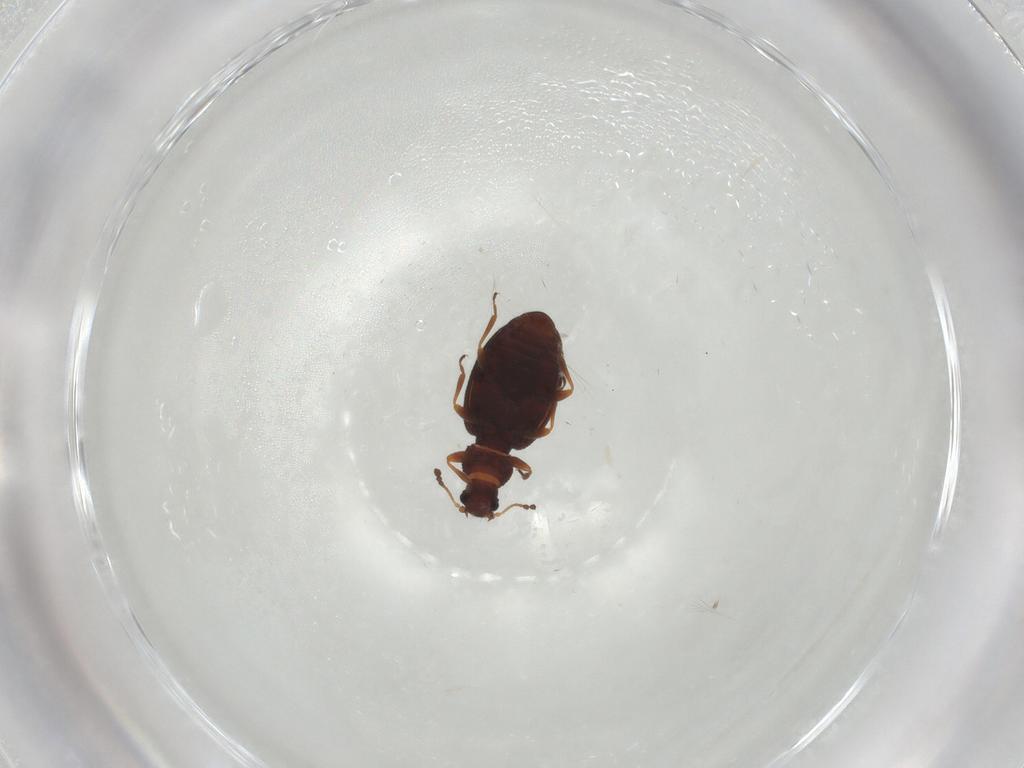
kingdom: Animalia
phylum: Arthropoda
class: Insecta
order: Coleoptera
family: Latridiidae
